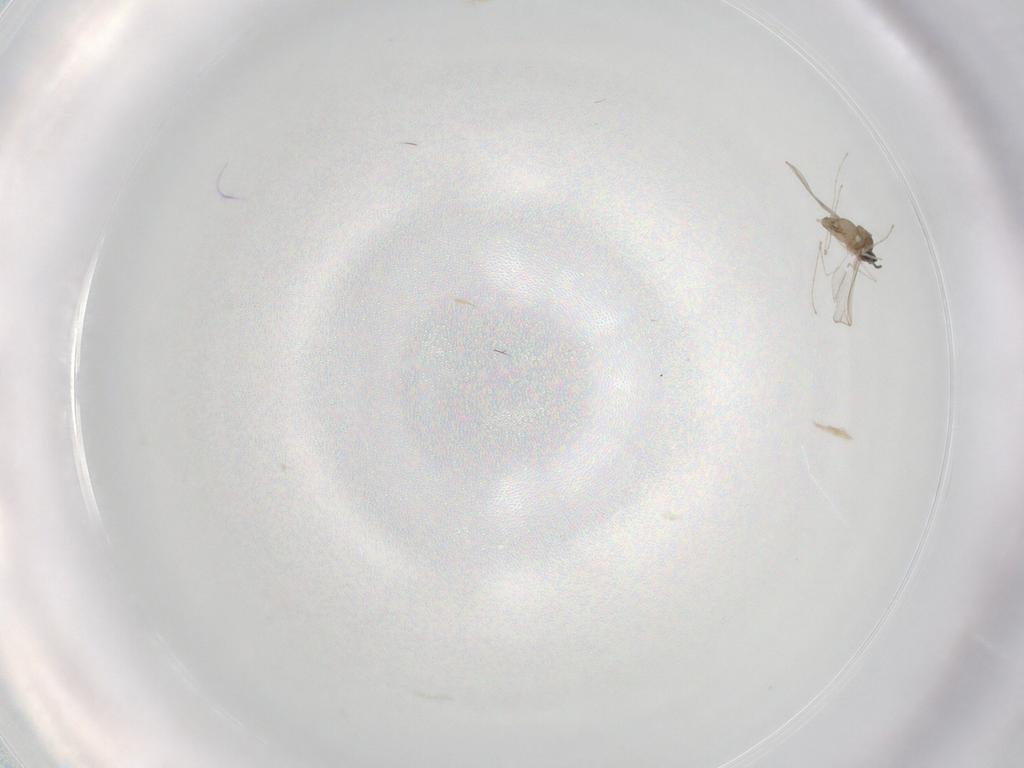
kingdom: Animalia
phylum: Arthropoda
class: Insecta
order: Diptera
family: Cecidomyiidae
